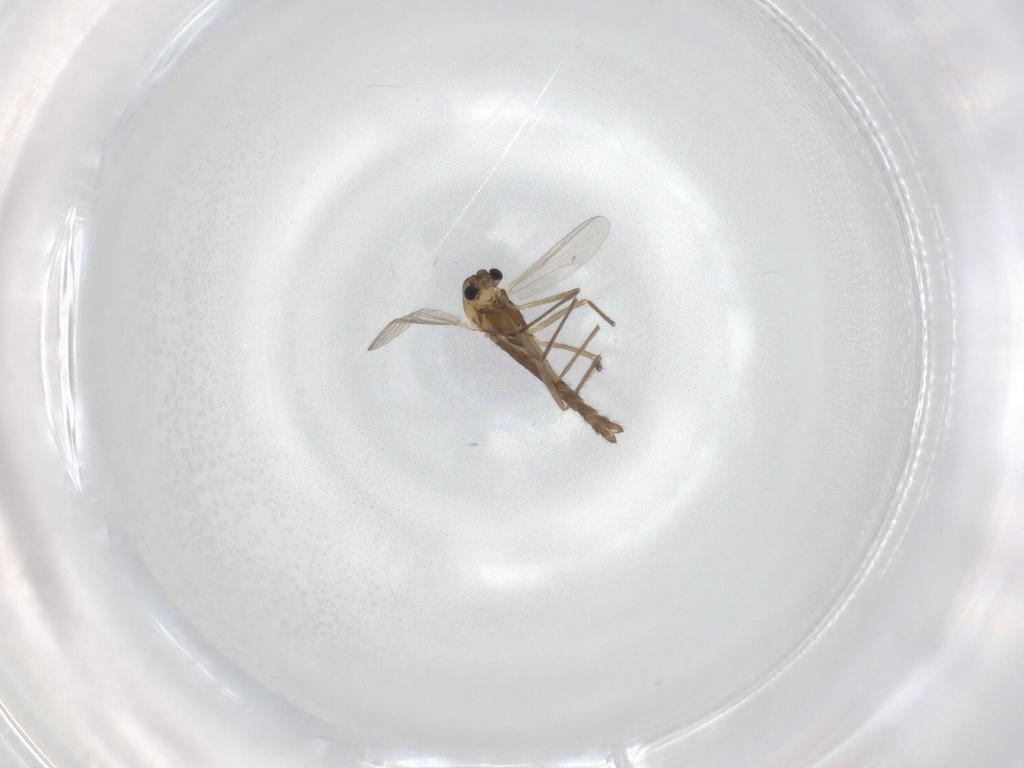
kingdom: Animalia
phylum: Arthropoda
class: Insecta
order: Diptera
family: Chironomidae
